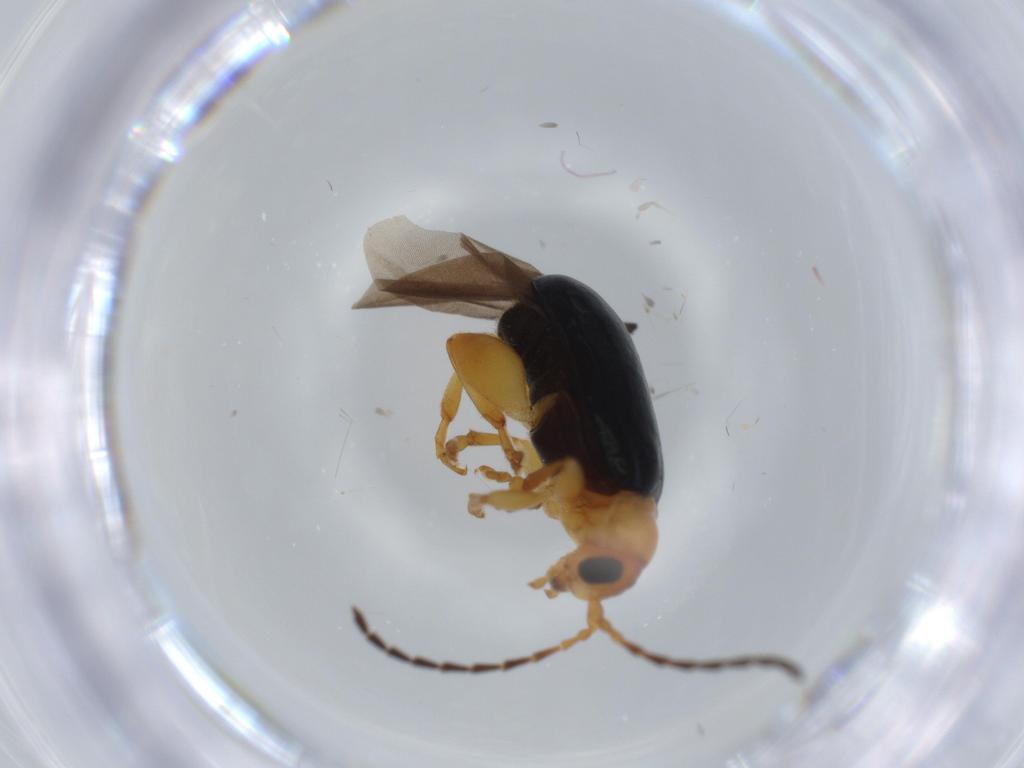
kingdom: Animalia
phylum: Arthropoda
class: Insecta
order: Coleoptera
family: Chrysomelidae
